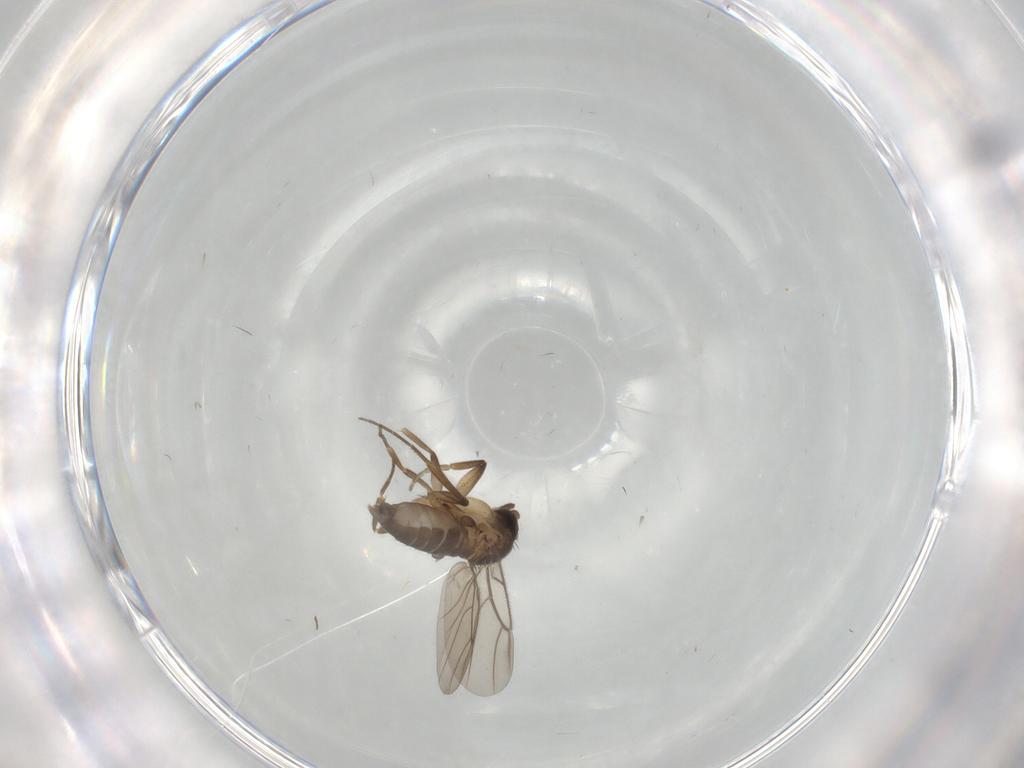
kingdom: Animalia
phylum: Arthropoda
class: Insecta
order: Diptera
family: Phoridae
